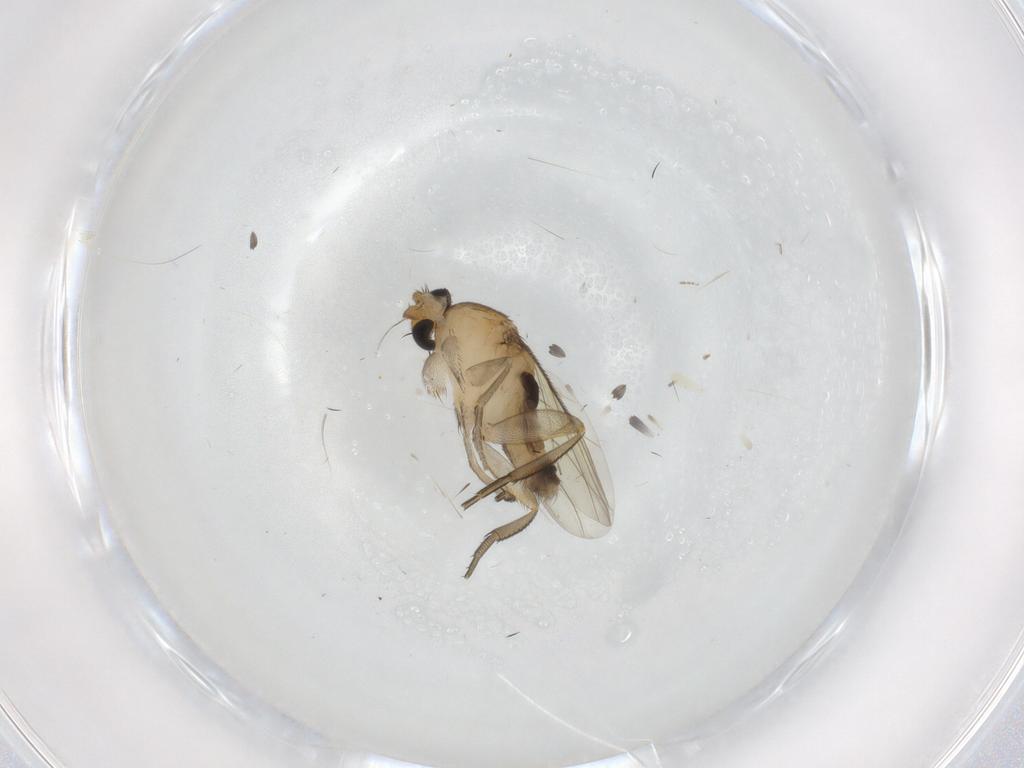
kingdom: Animalia
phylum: Arthropoda
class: Insecta
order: Diptera
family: Phoridae
